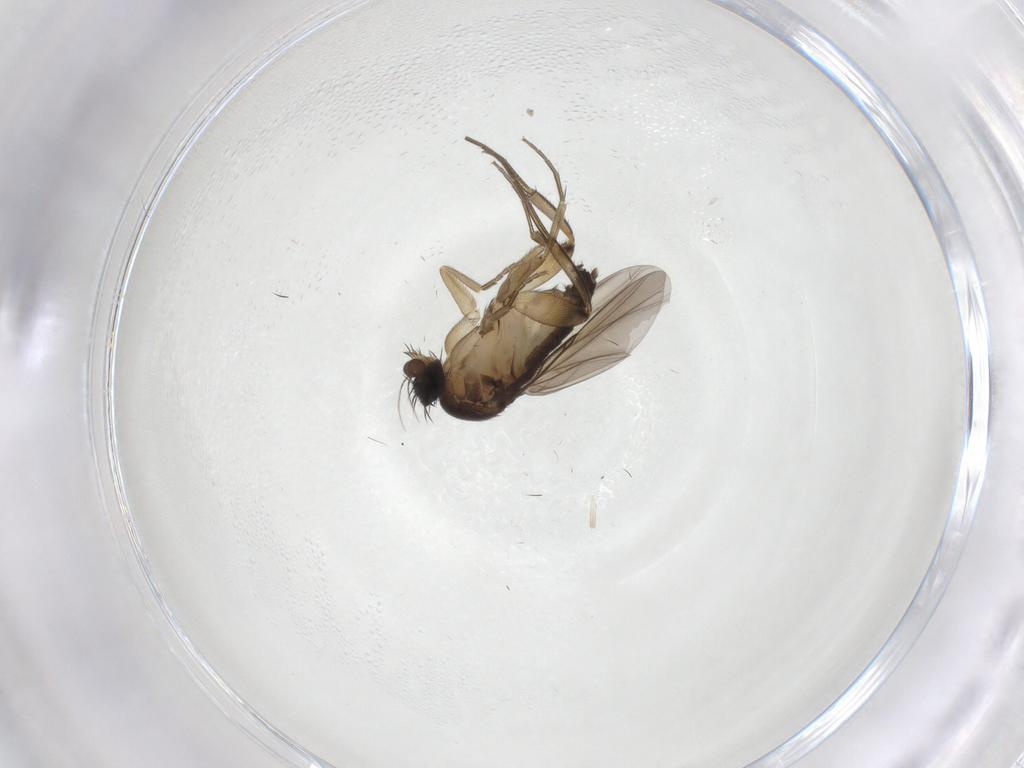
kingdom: Animalia
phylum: Arthropoda
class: Insecta
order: Diptera
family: Phoridae
